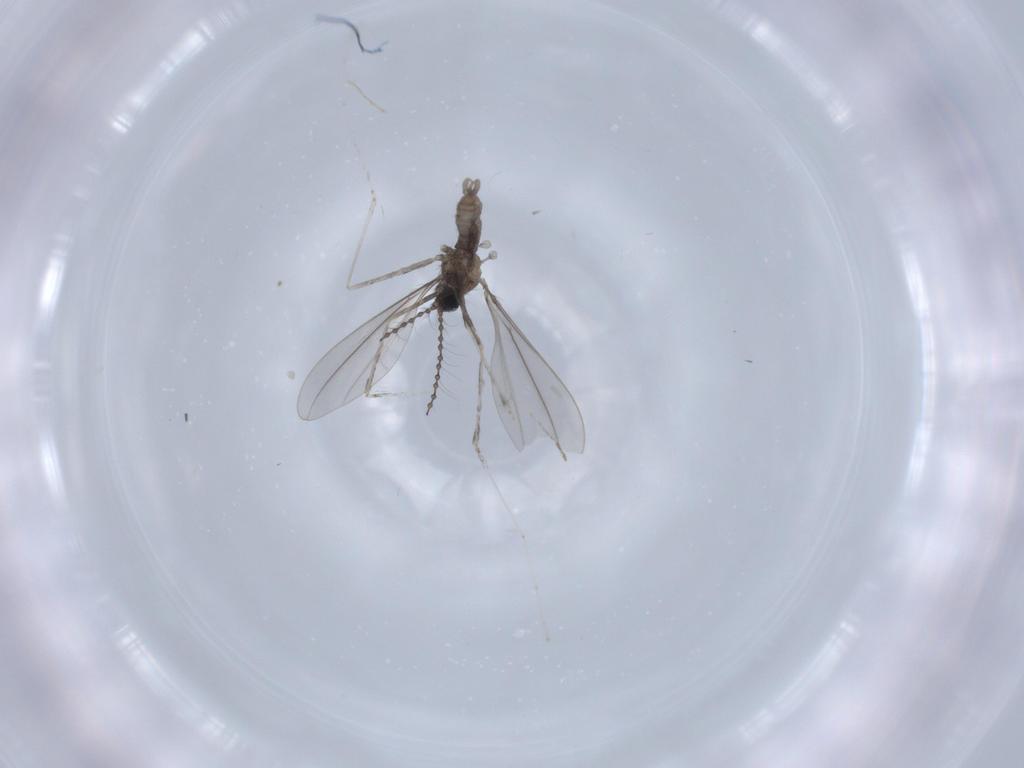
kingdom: Animalia
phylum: Arthropoda
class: Insecta
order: Diptera
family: Cecidomyiidae
